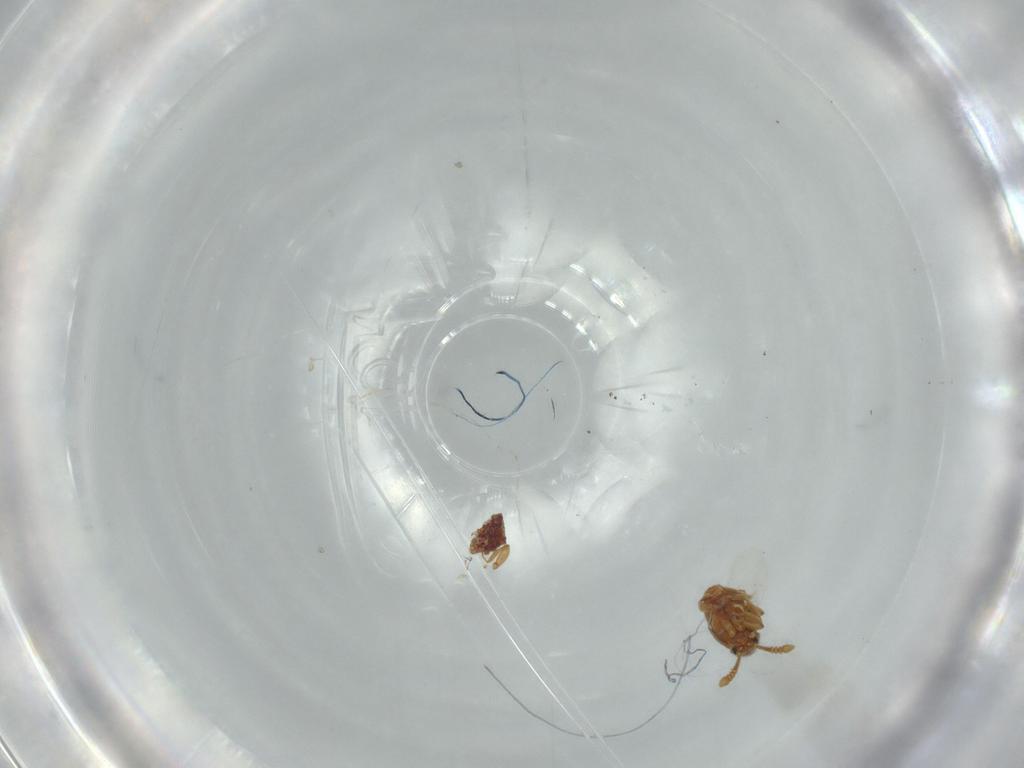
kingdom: Animalia
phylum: Arthropoda
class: Insecta
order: Coleoptera
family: Staphylinidae
